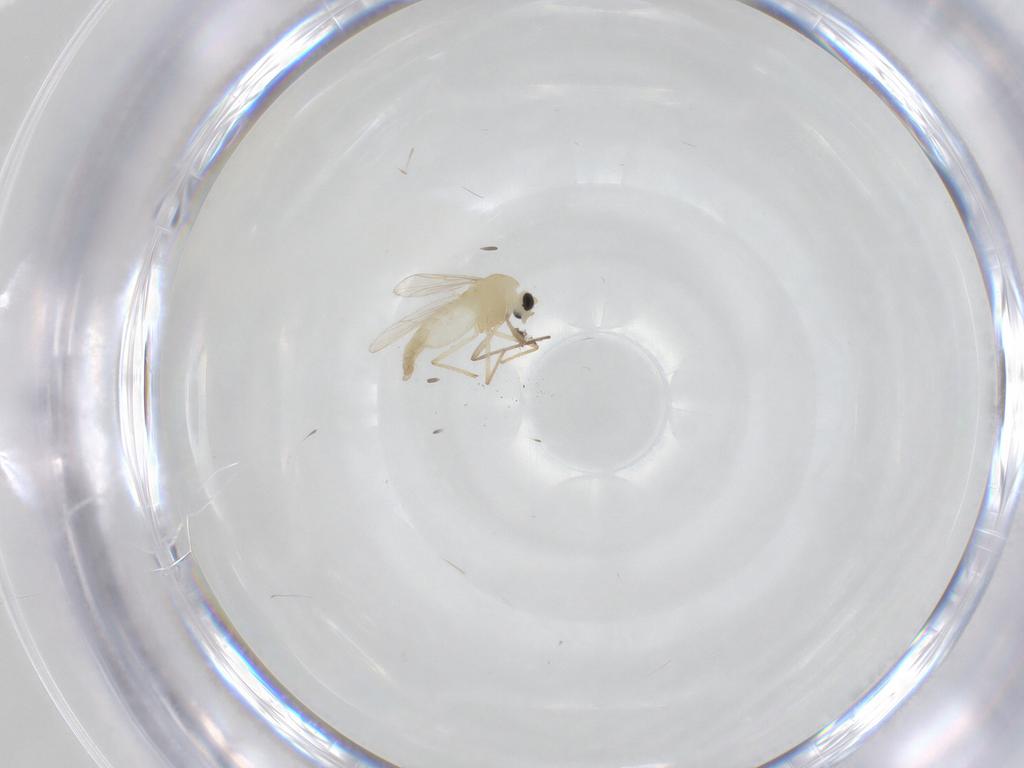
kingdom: Animalia
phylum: Arthropoda
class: Insecta
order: Diptera
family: Chironomidae
